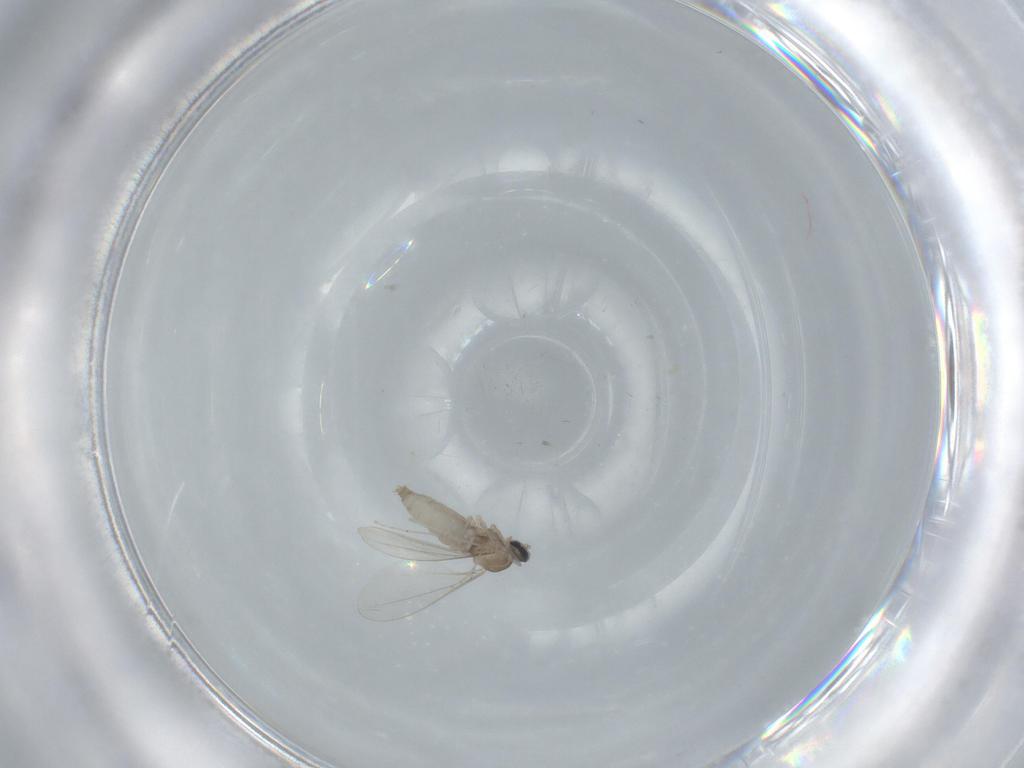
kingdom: Animalia
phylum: Arthropoda
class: Insecta
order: Diptera
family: Cecidomyiidae
